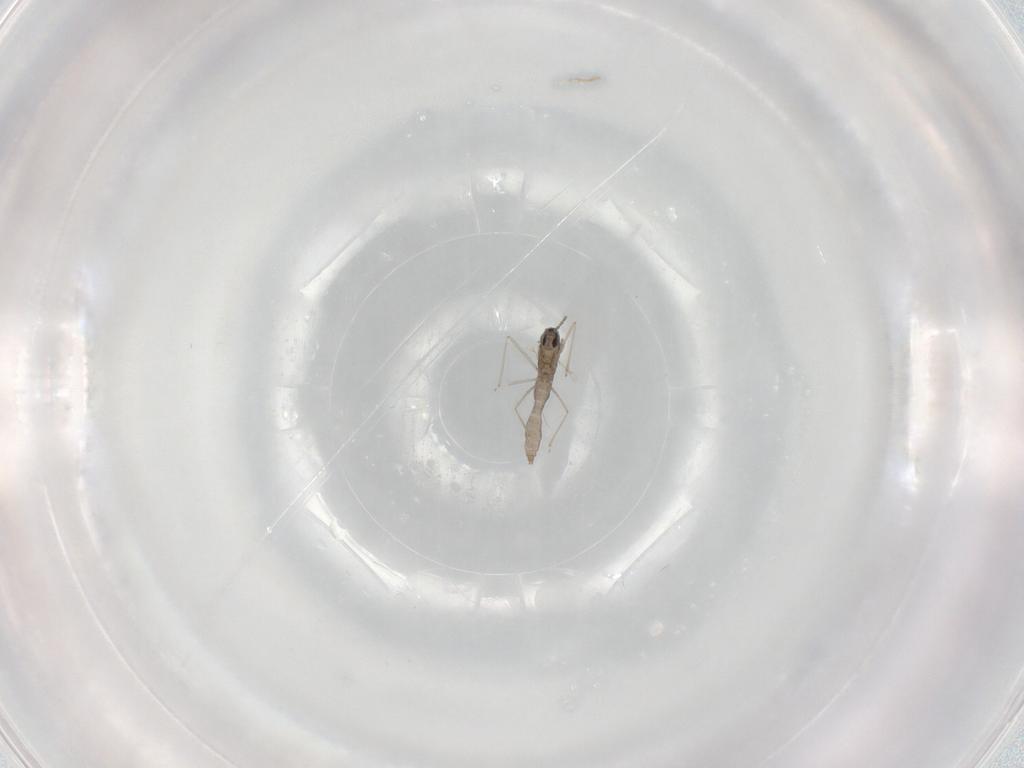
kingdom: Animalia
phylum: Arthropoda
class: Insecta
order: Diptera
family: Cecidomyiidae
